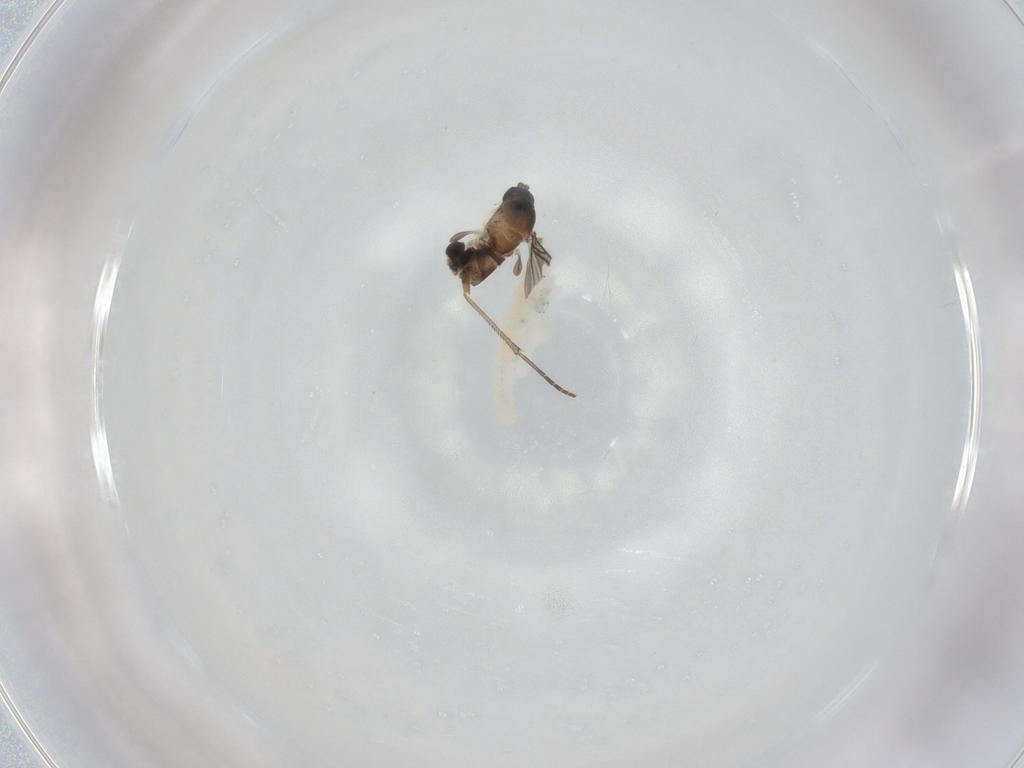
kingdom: Animalia
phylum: Arthropoda
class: Insecta
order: Diptera
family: Sciaridae
